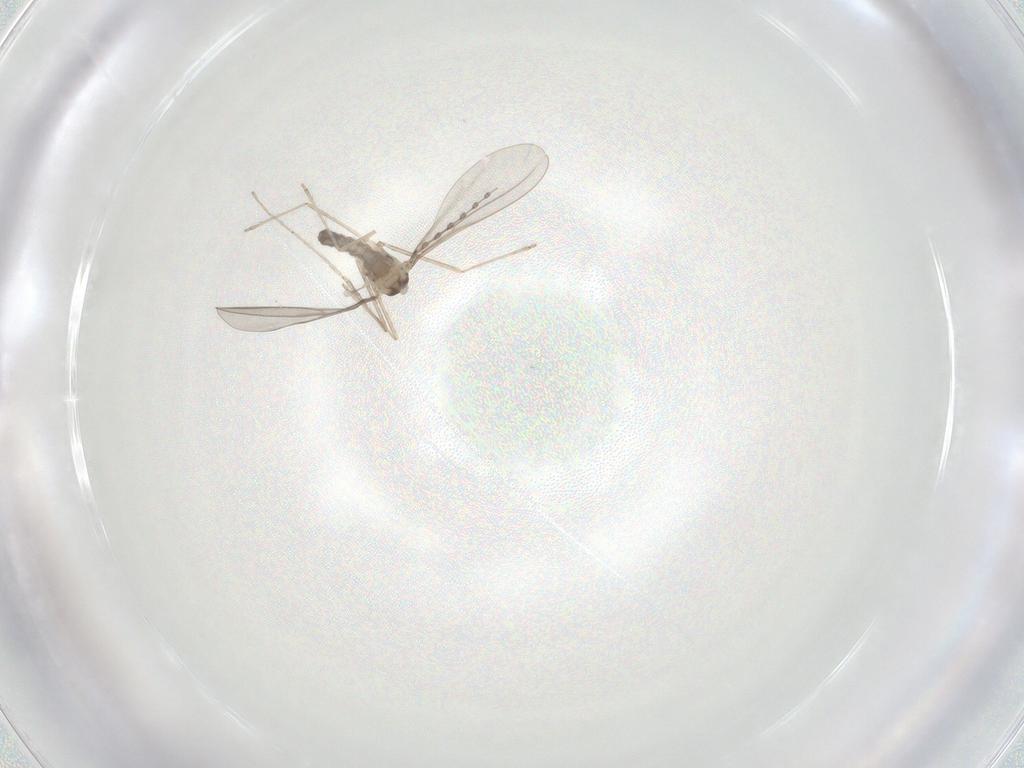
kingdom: Animalia
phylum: Arthropoda
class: Insecta
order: Diptera
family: Cecidomyiidae
